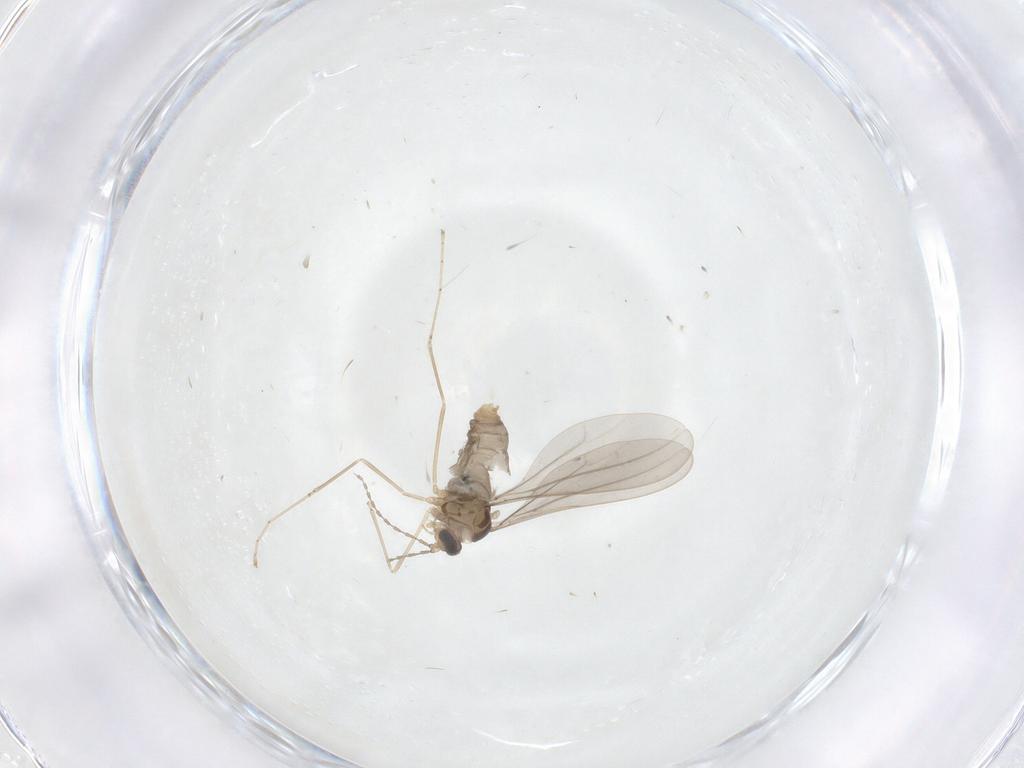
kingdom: Animalia
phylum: Arthropoda
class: Insecta
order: Diptera
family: Cecidomyiidae
